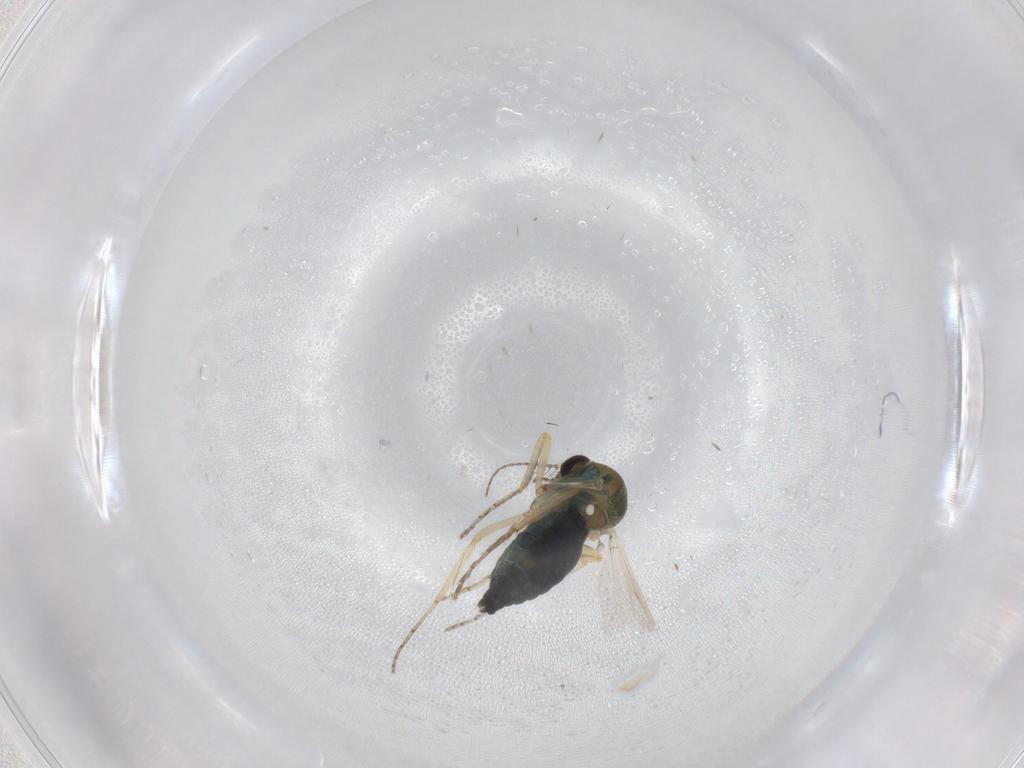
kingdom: Animalia
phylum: Arthropoda
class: Insecta
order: Diptera
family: Ceratopogonidae
